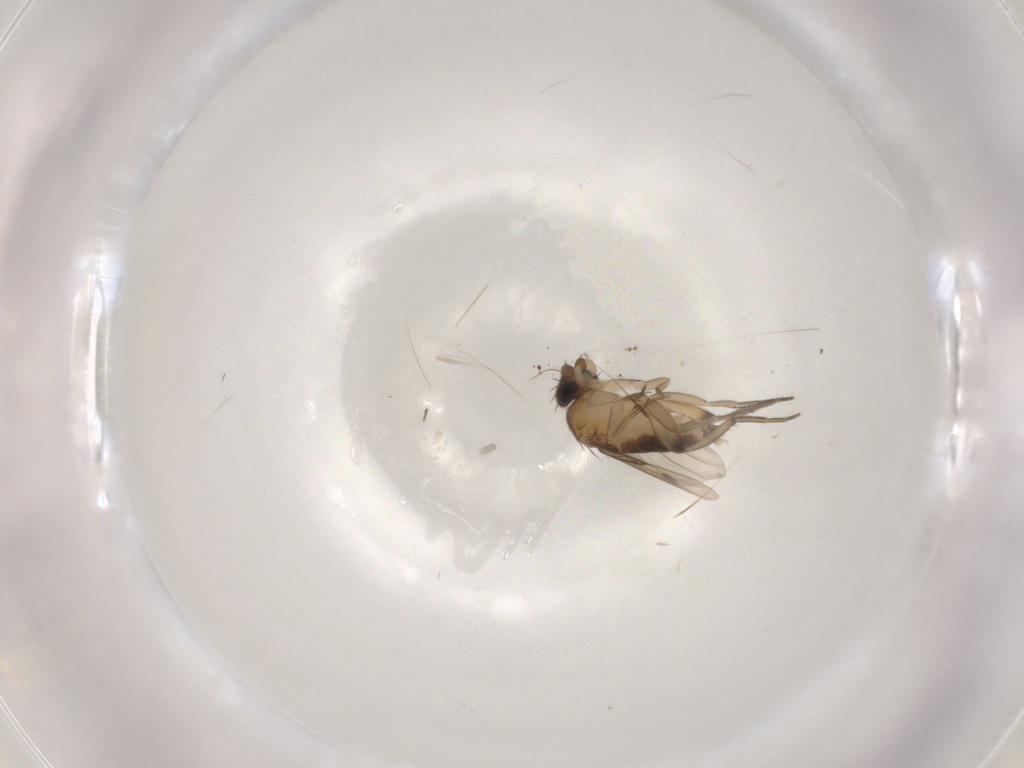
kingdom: Animalia
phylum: Arthropoda
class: Insecta
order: Diptera
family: Phoridae
